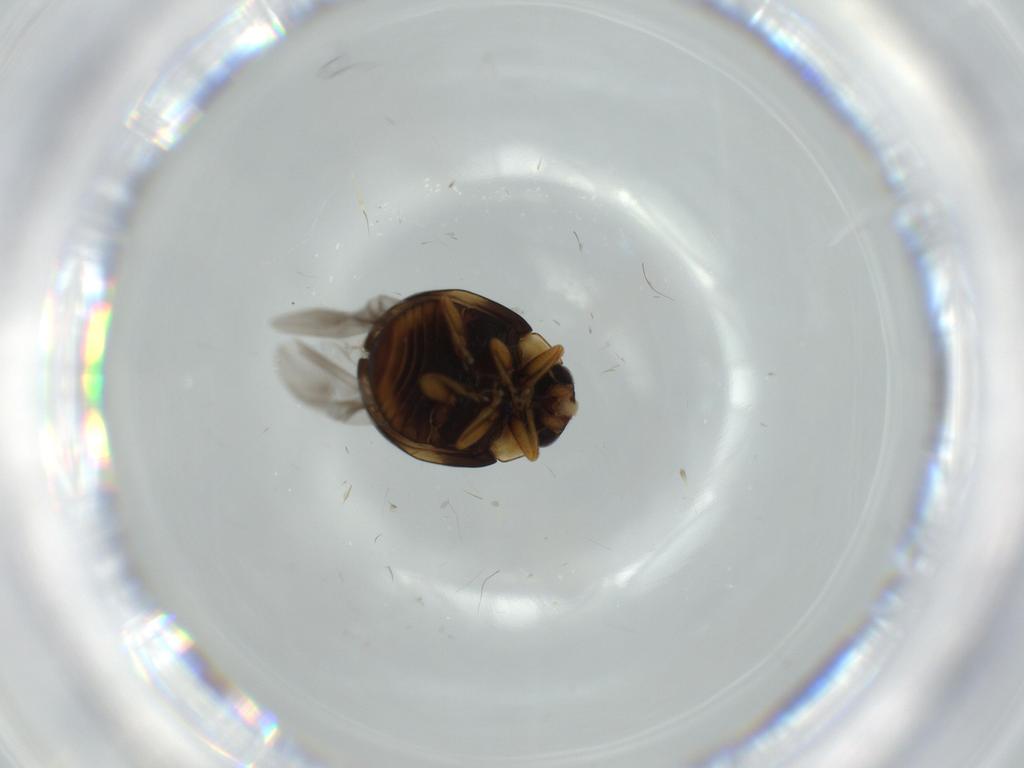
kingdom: Animalia
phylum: Arthropoda
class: Insecta
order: Coleoptera
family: Coccinellidae
